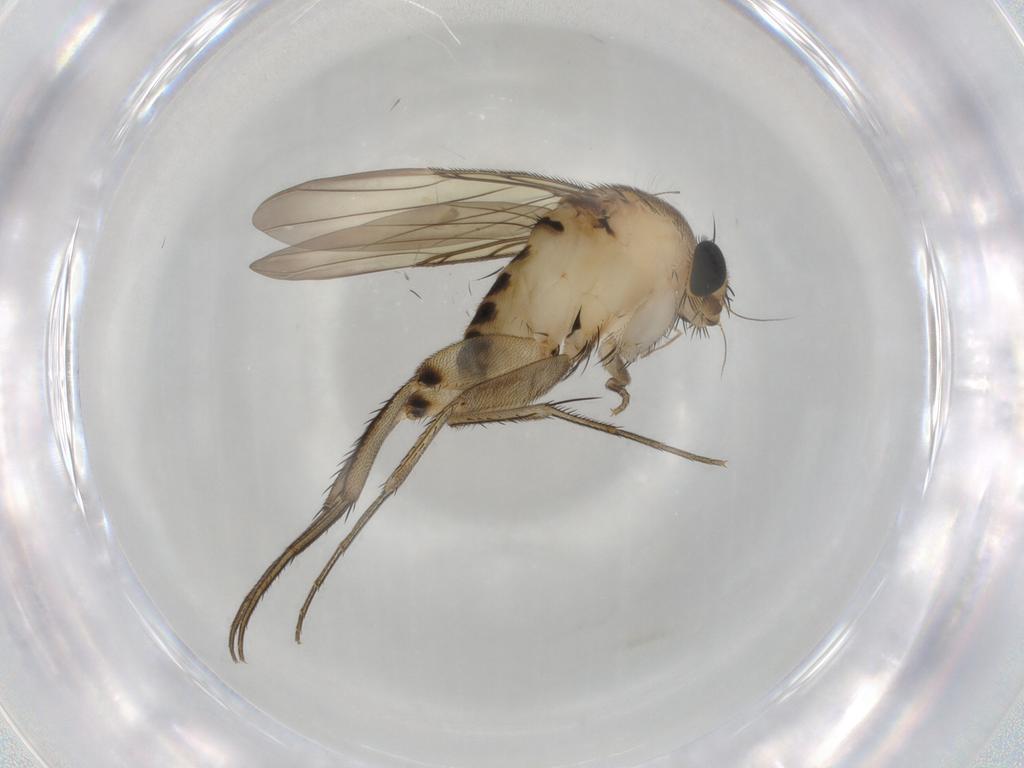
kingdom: Animalia
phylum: Arthropoda
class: Insecta
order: Diptera
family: Phoridae
